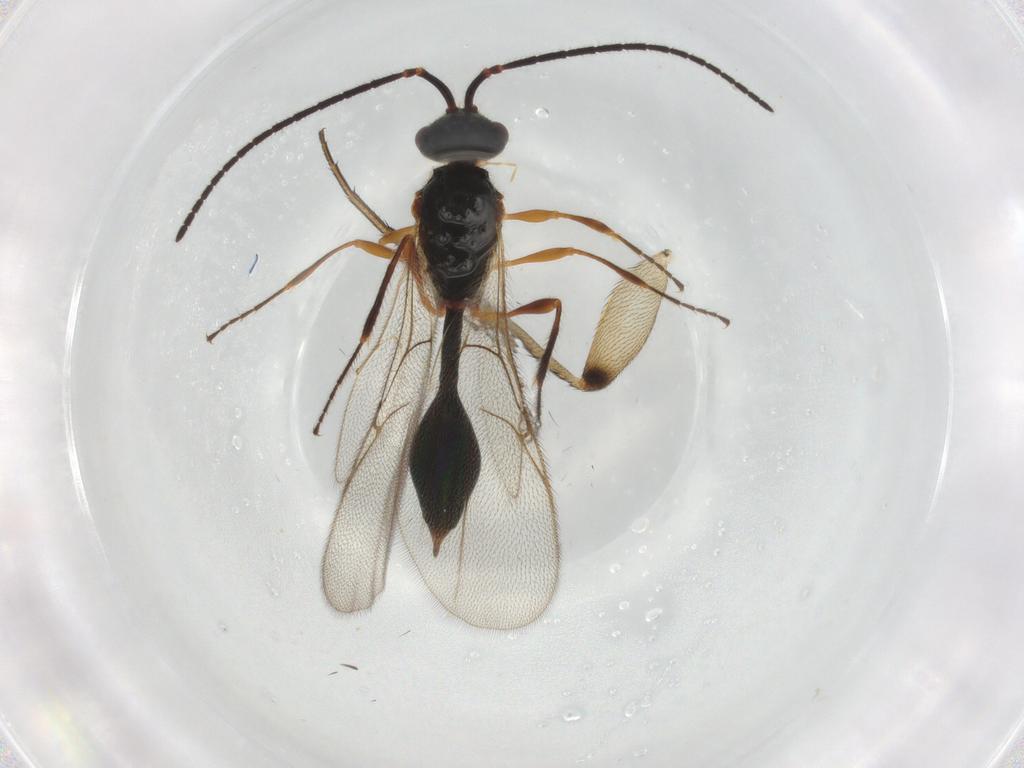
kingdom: Animalia
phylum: Arthropoda
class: Insecta
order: Hymenoptera
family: Diapriidae
